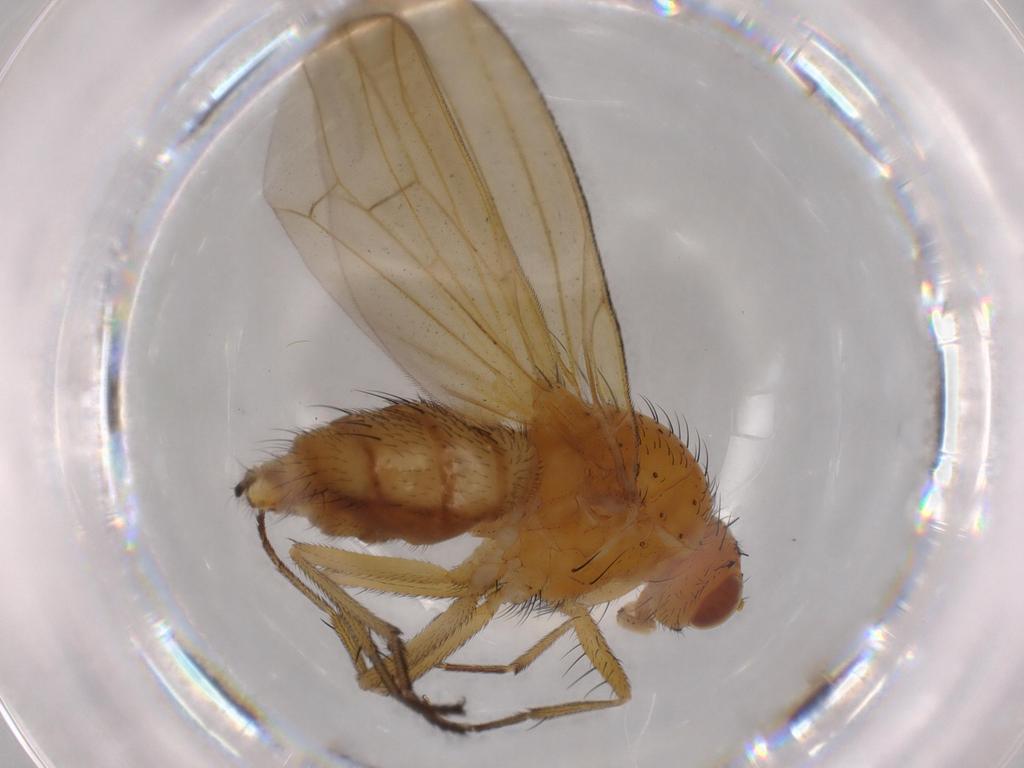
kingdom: Animalia
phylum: Arthropoda
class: Insecta
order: Diptera
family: Lauxaniidae
